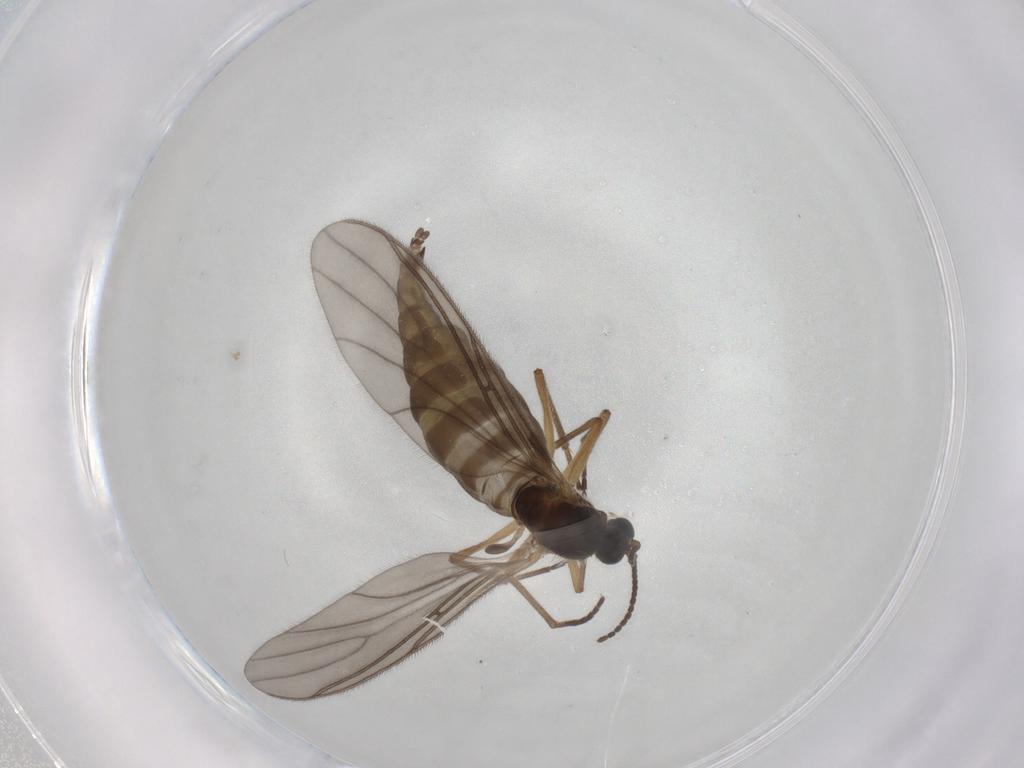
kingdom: Animalia
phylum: Arthropoda
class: Insecta
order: Diptera
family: Sciaridae
